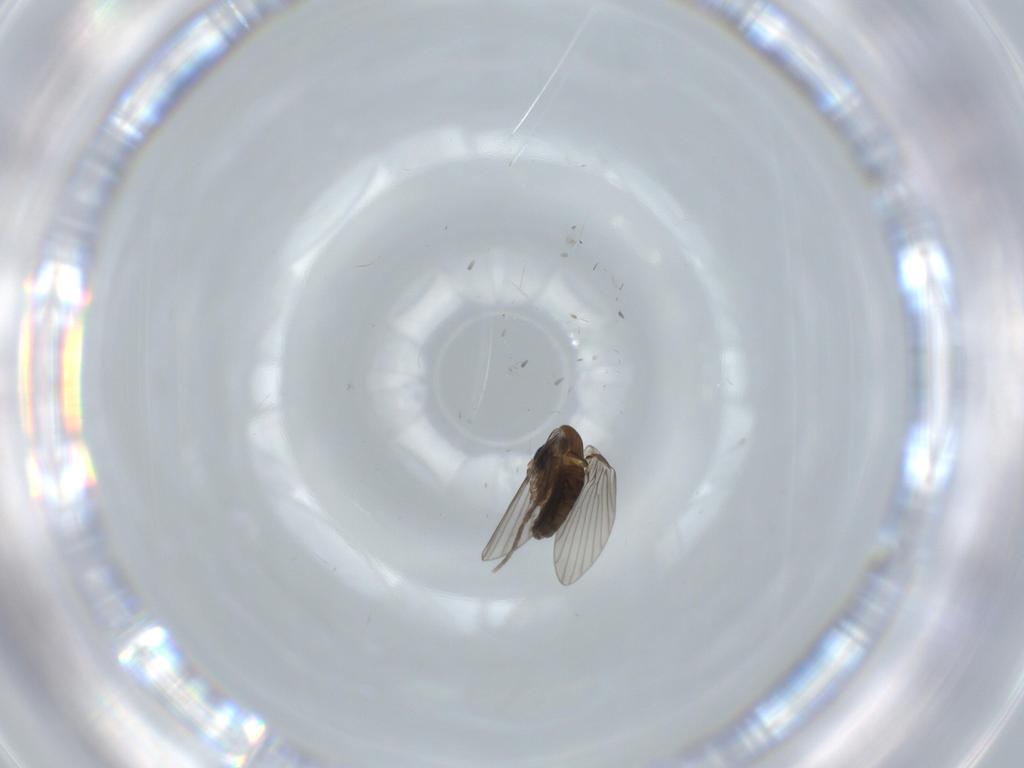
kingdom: Animalia
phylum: Arthropoda
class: Insecta
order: Diptera
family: Psychodidae
